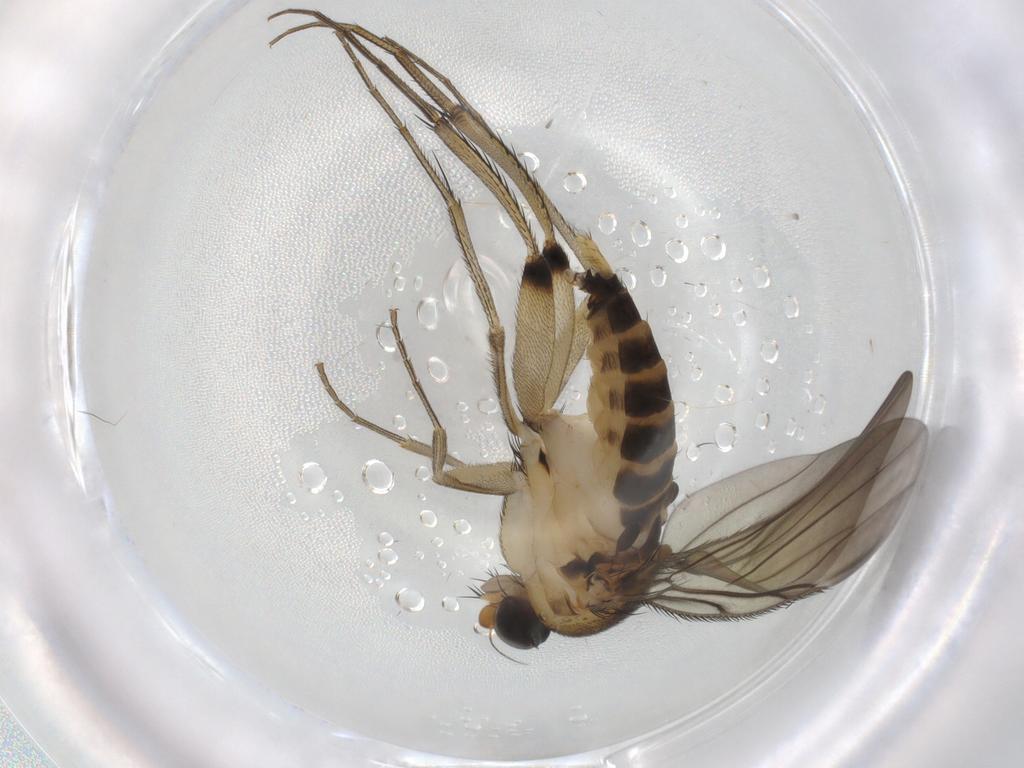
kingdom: Animalia
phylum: Arthropoda
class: Insecta
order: Diptera
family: Phoridae
